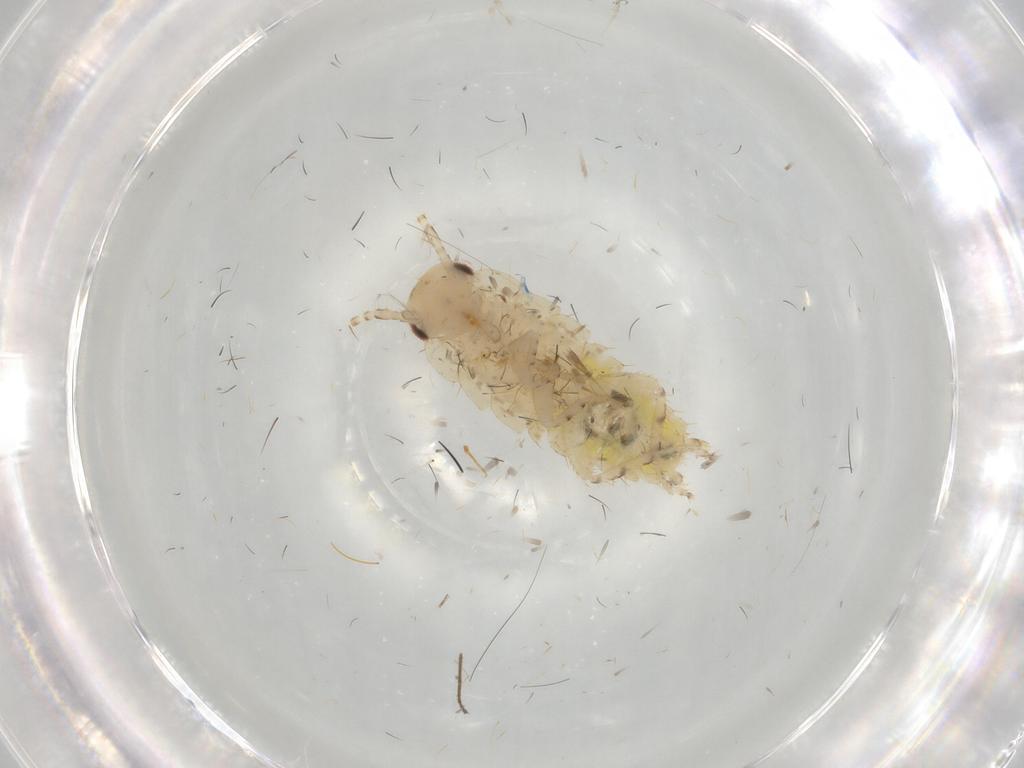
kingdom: Animalia
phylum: Arthropoda
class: Insecta
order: Blattodea
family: Ectobiidae
